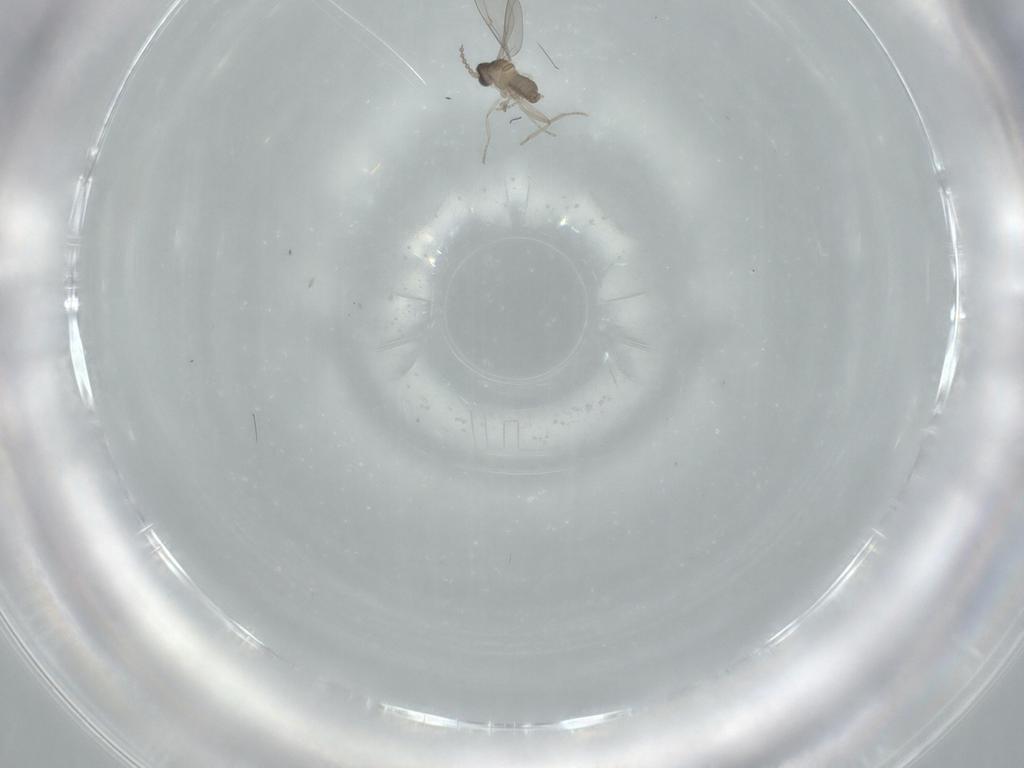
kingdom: Animalia
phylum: Arthropoda
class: Insecta
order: Diptera
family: Cecidomyiidae
